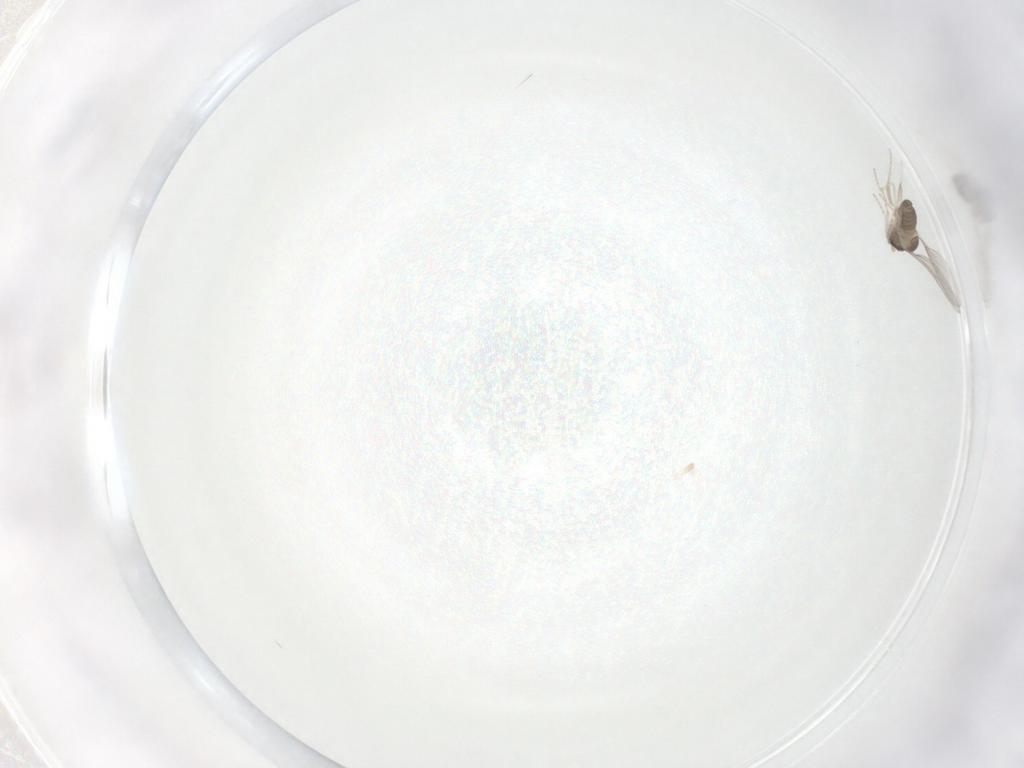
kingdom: Animalia
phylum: Arthropoda
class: Insecta
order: Diptera
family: Cecidomyiidae
